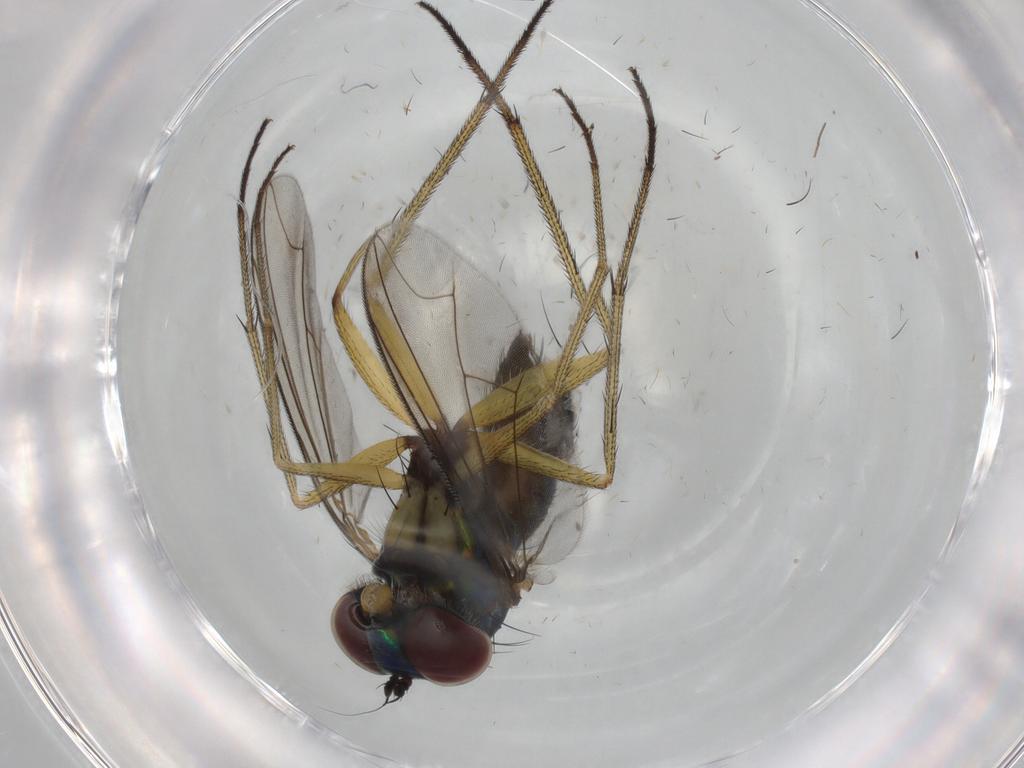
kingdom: Animalia
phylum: Arthropoda
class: Insecta
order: Diptera
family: Dolichopodidae
